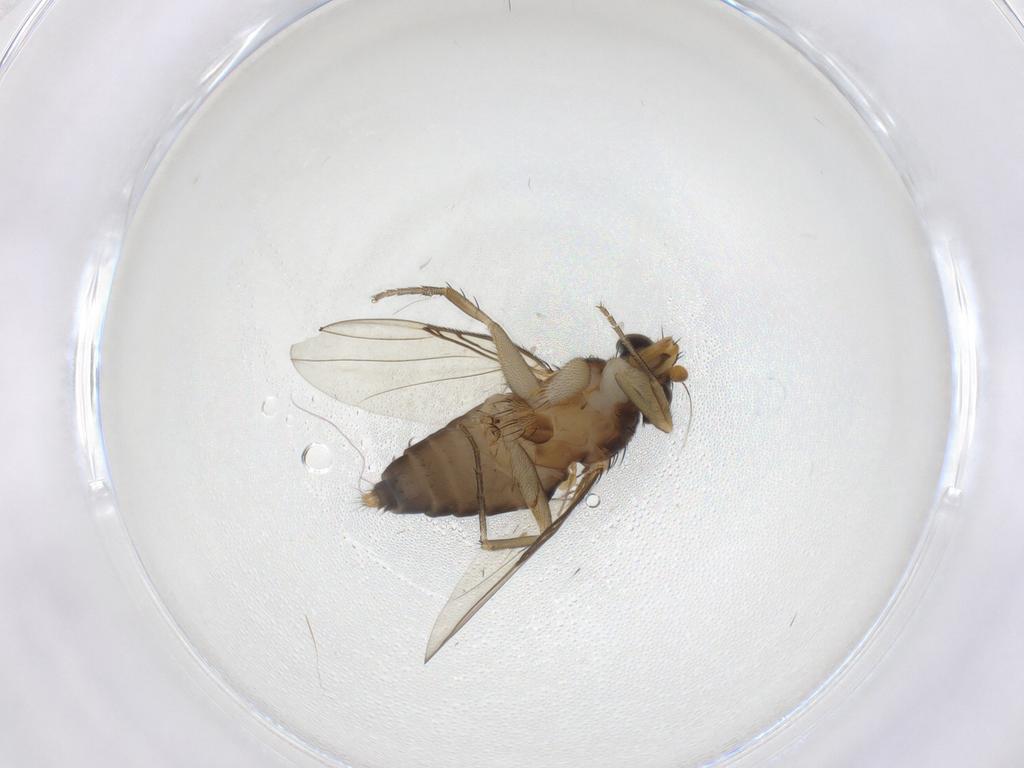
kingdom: Animalia
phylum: Arthropoda
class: Insecta
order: Diptera
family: Phoridae
